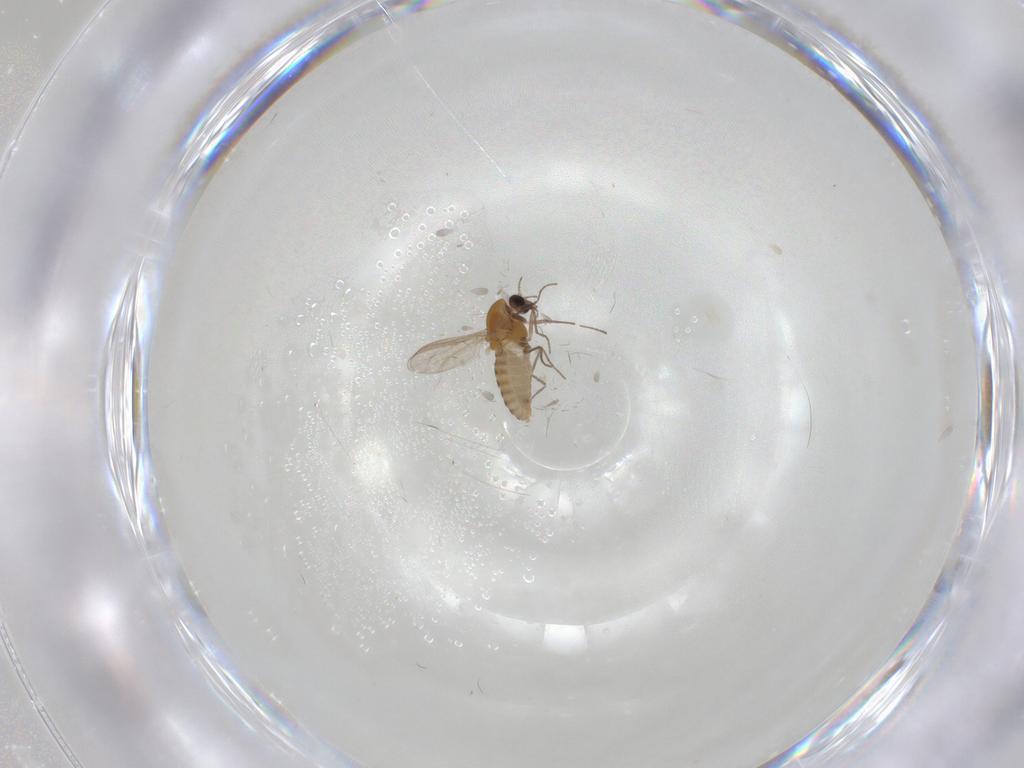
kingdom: Animalia
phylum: Arthropoda
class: Insecta
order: Diptera
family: Chironomidae
